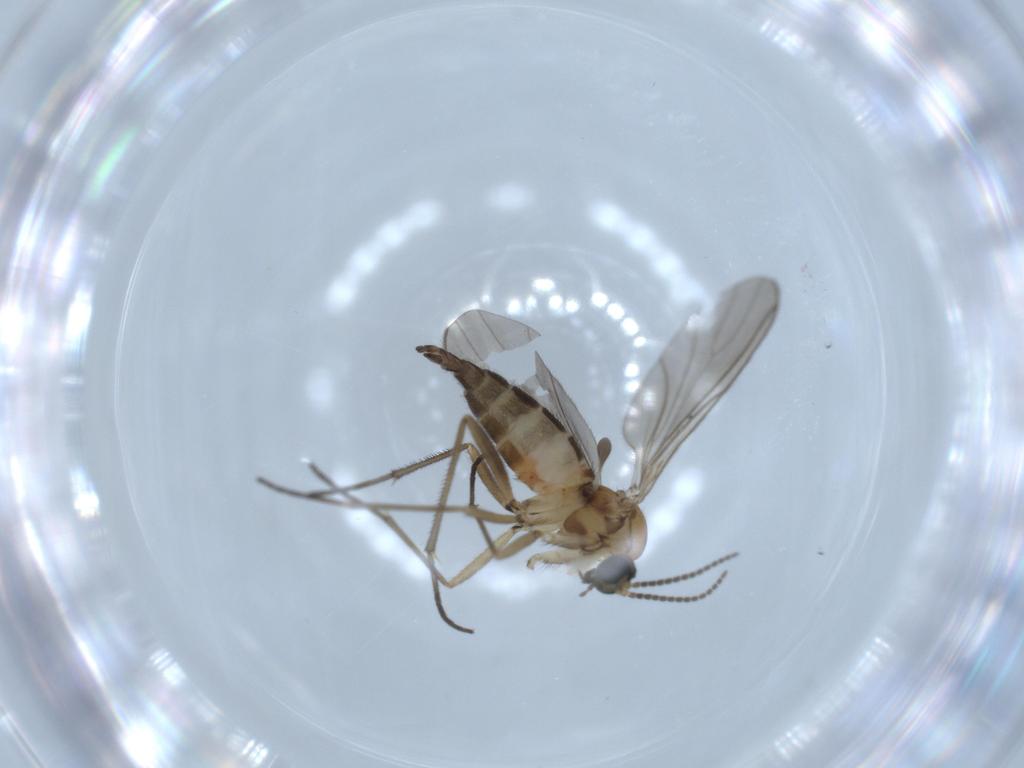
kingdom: Animalia
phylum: Arthropoda
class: Insecta
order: Diptera
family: Sciaridae
